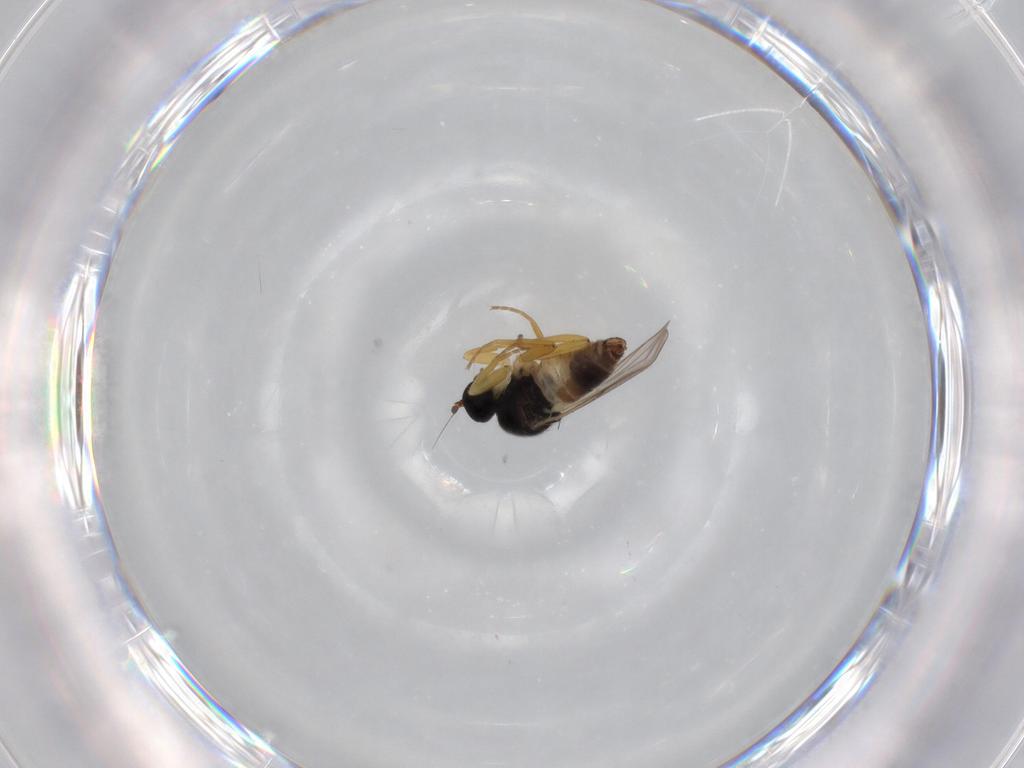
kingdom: Animalia
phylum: Arthropoda
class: Insecta
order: Diptera
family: Hybotidae
